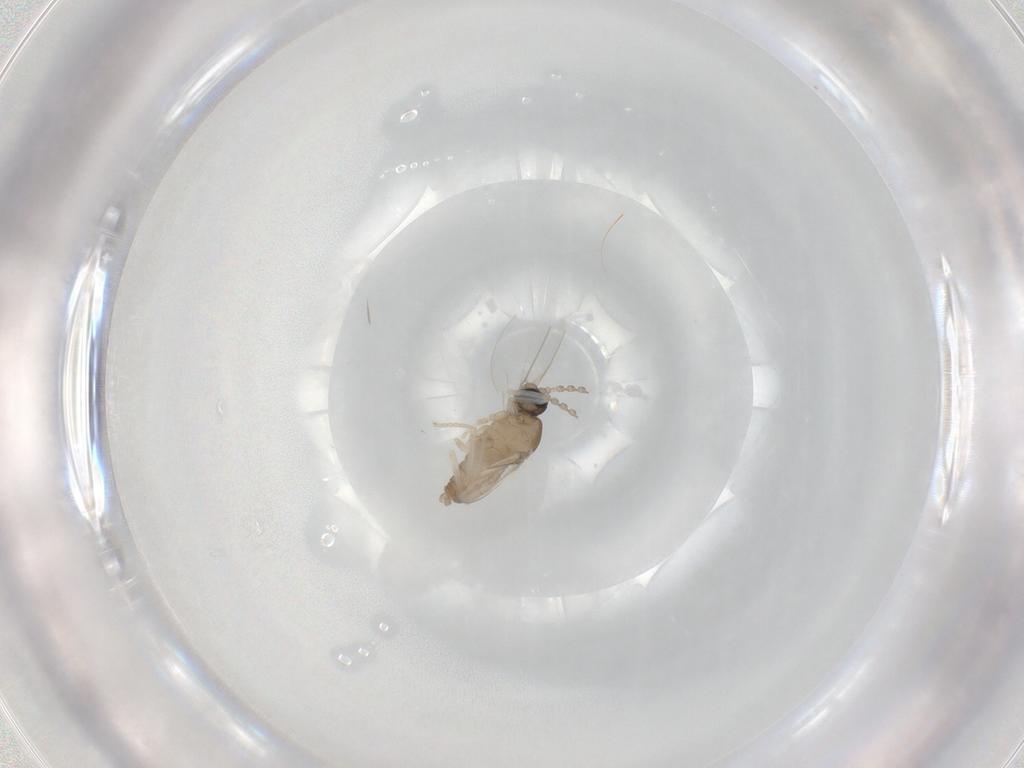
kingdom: Animalia
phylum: Arthropoda
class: Insecta
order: Diptera
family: Cecidomyiidae
